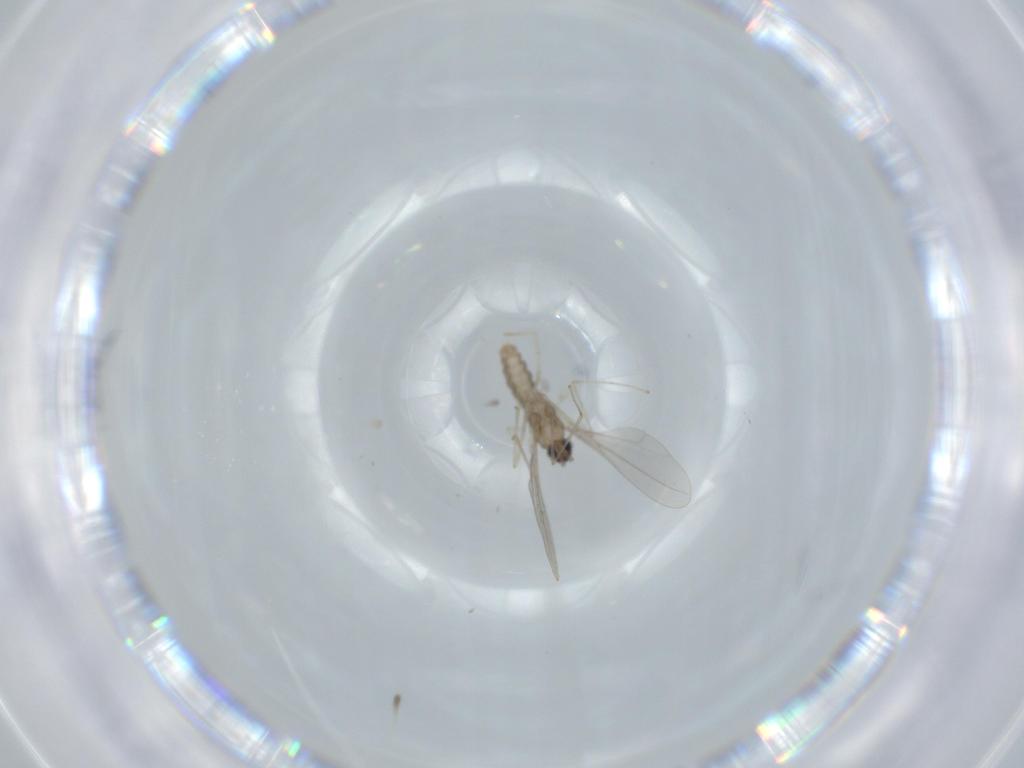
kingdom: Animalia
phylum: Arthropoda
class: Insecta
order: Diptera
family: Cecidomyiidae
